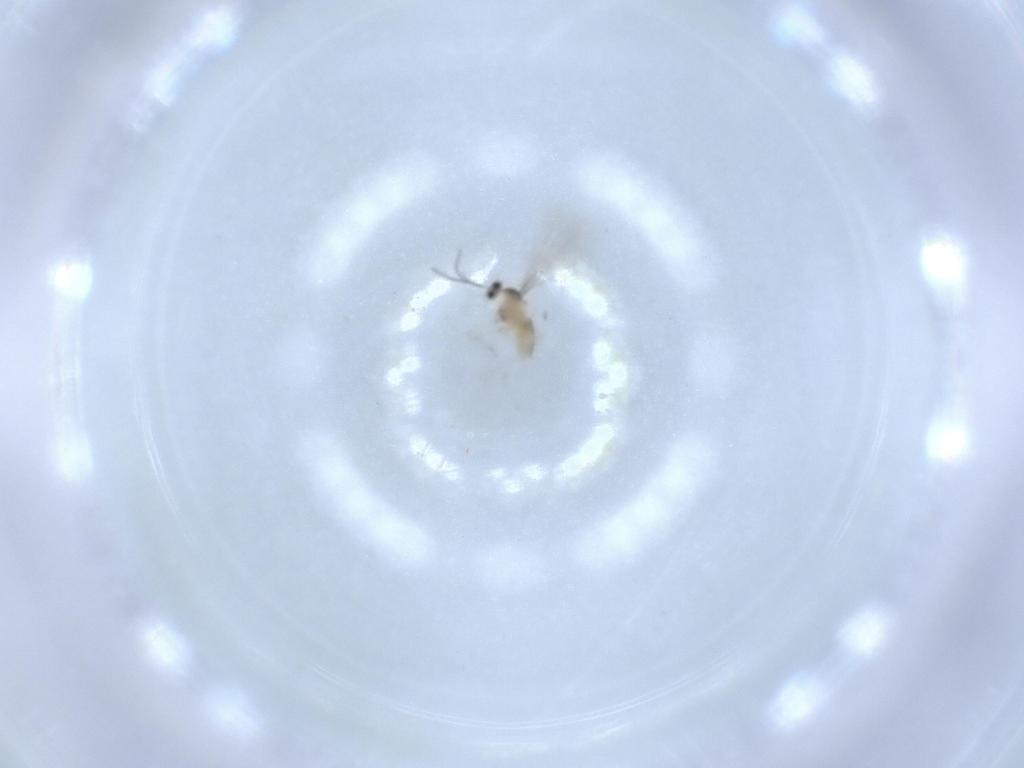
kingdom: Animalia
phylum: Arthropoda
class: Insecta
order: Diptera
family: Cecidomyiidae
